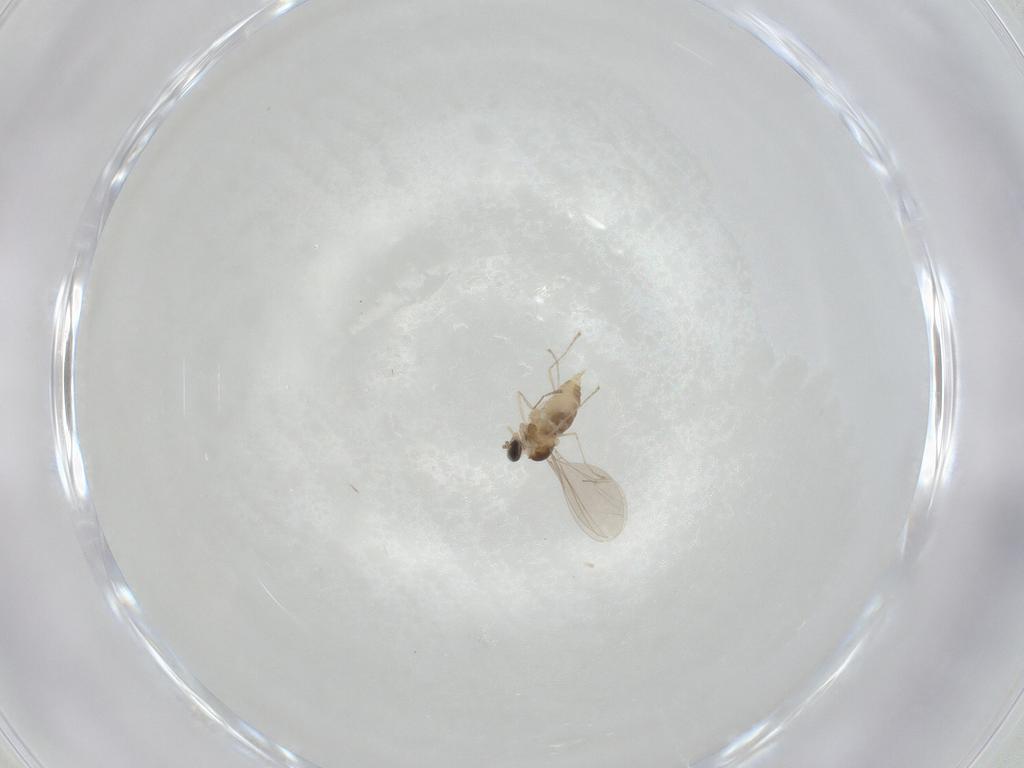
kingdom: Animalia
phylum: Arthropoda
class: Insecta
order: Diptera
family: Cecidomyiidae
